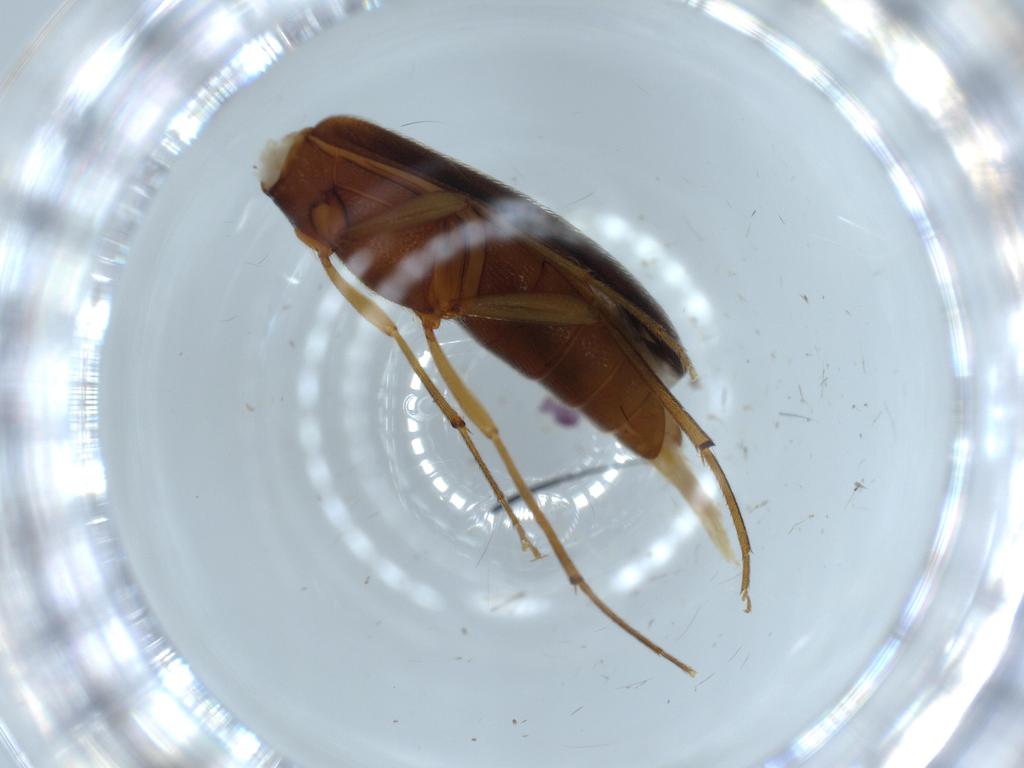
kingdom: Animalia
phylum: Arthropoda
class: Insecta
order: Coleoptera
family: Melandryidae
